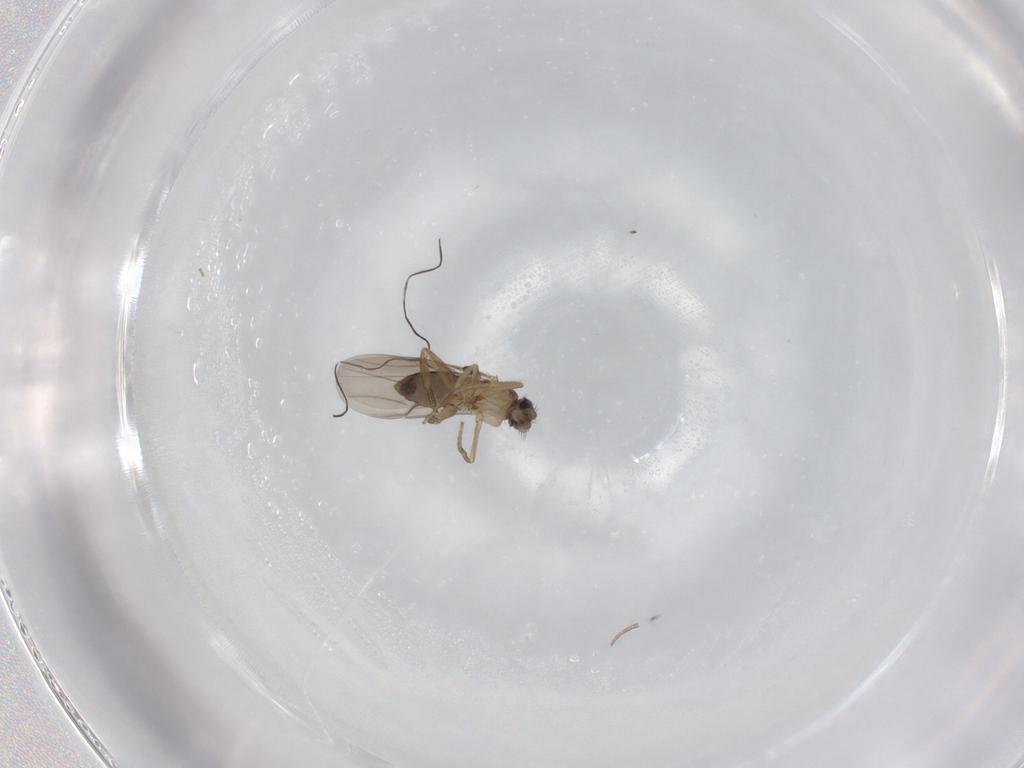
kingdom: Animalia
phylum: Arthropoda
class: Insecta
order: Diptera
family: Phoridae
